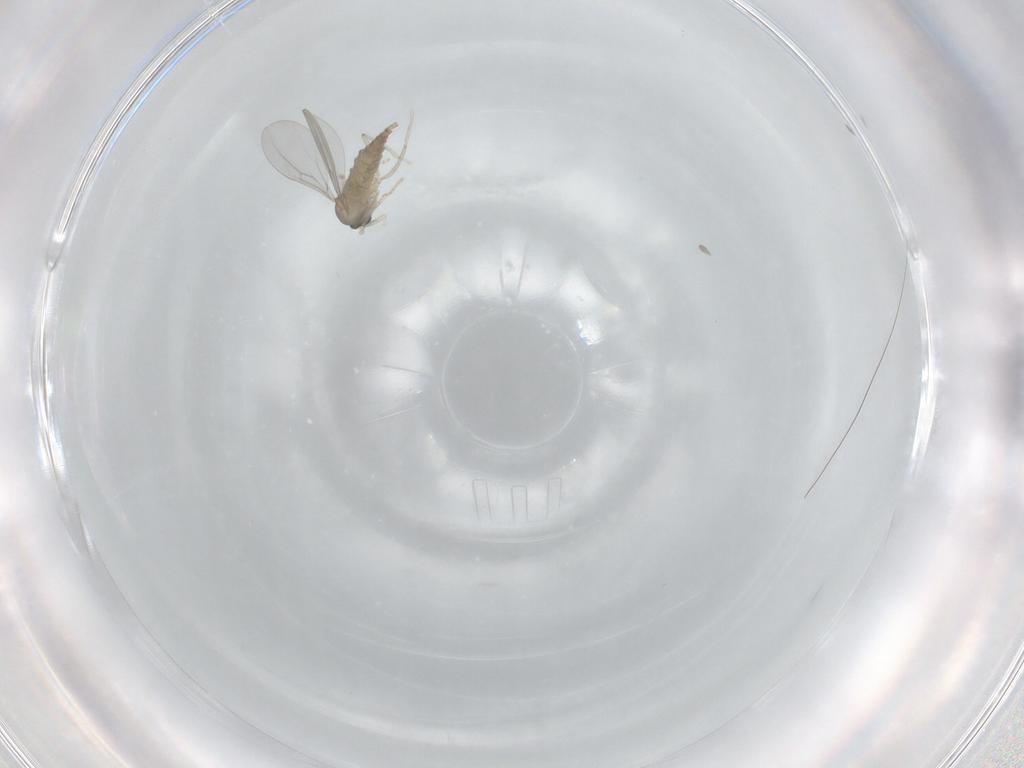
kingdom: Animalia
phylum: Arthropoda
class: Insecta
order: Diptera
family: Cecidomyiidae
